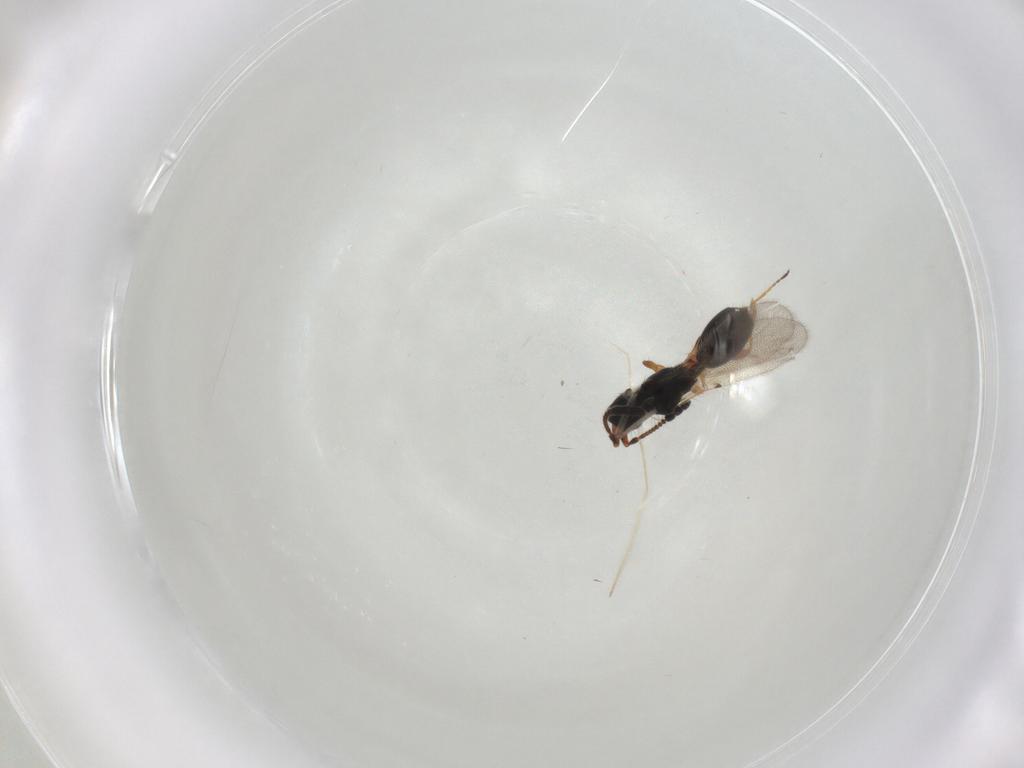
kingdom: Animalia
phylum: Arthropoda
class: Insecta
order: Hymenoptera
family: Diapriidae
